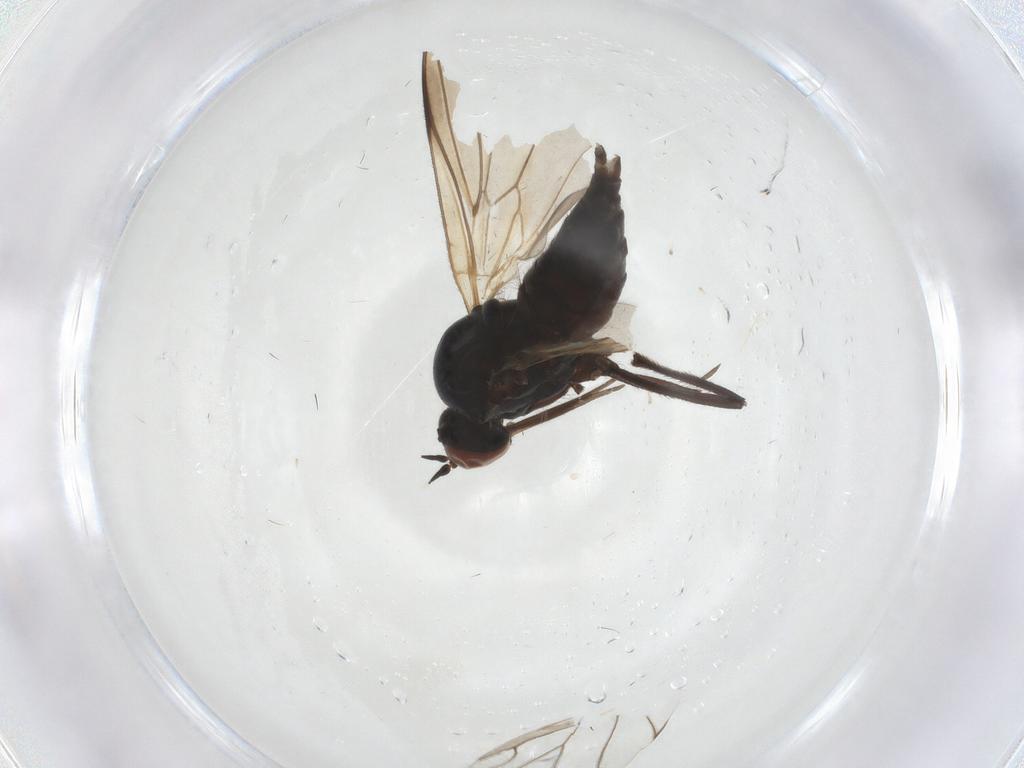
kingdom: Animalia
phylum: Arthropoda
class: Insecta
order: Diptera
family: Empididae
